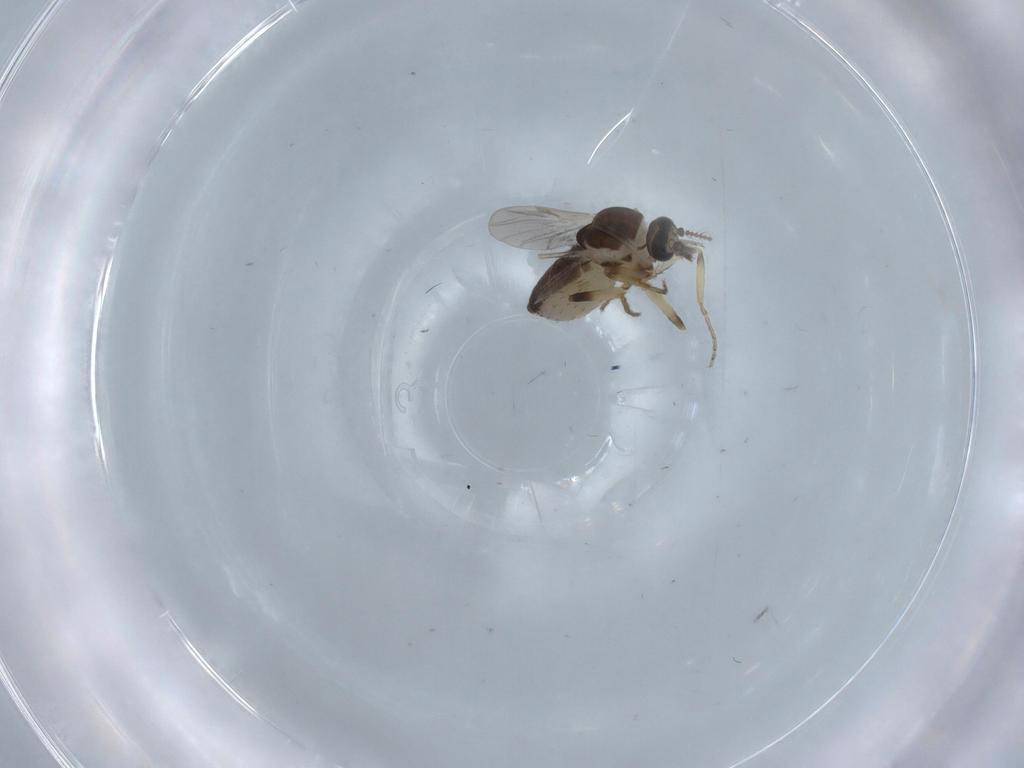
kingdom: Animalia
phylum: Arthropoda
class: Insecta
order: Diptera
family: Ceratopogonidae
